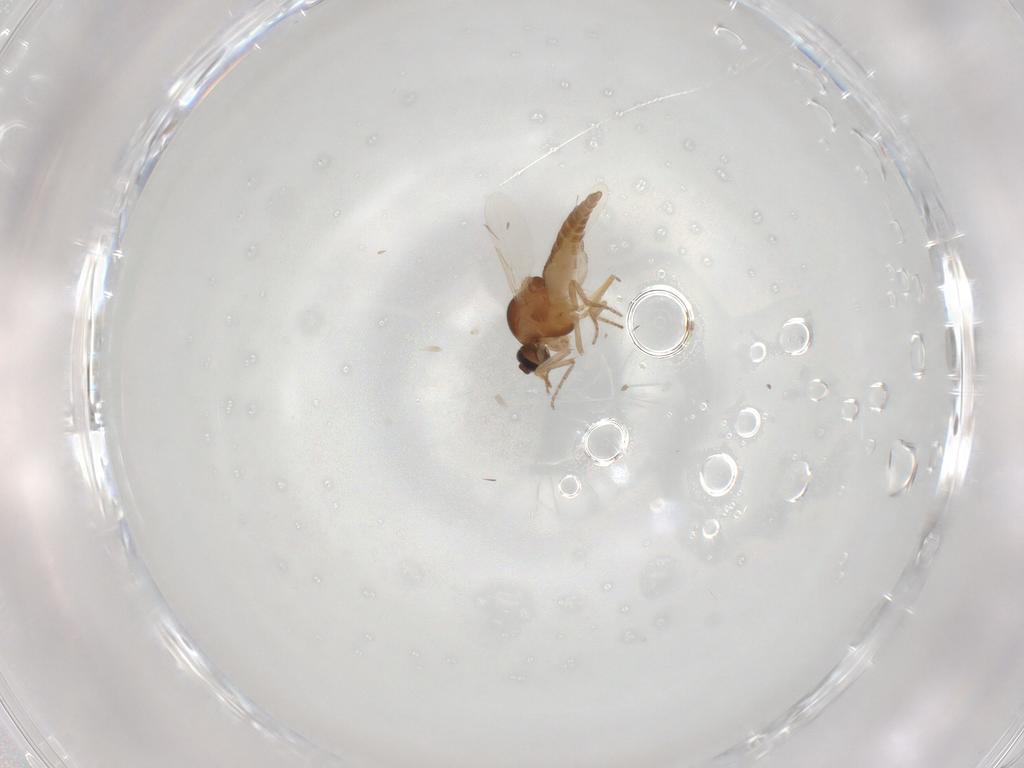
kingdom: Animalia
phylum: Arthropoda
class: Insecta
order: Diptera
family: Ceratopogonidae
